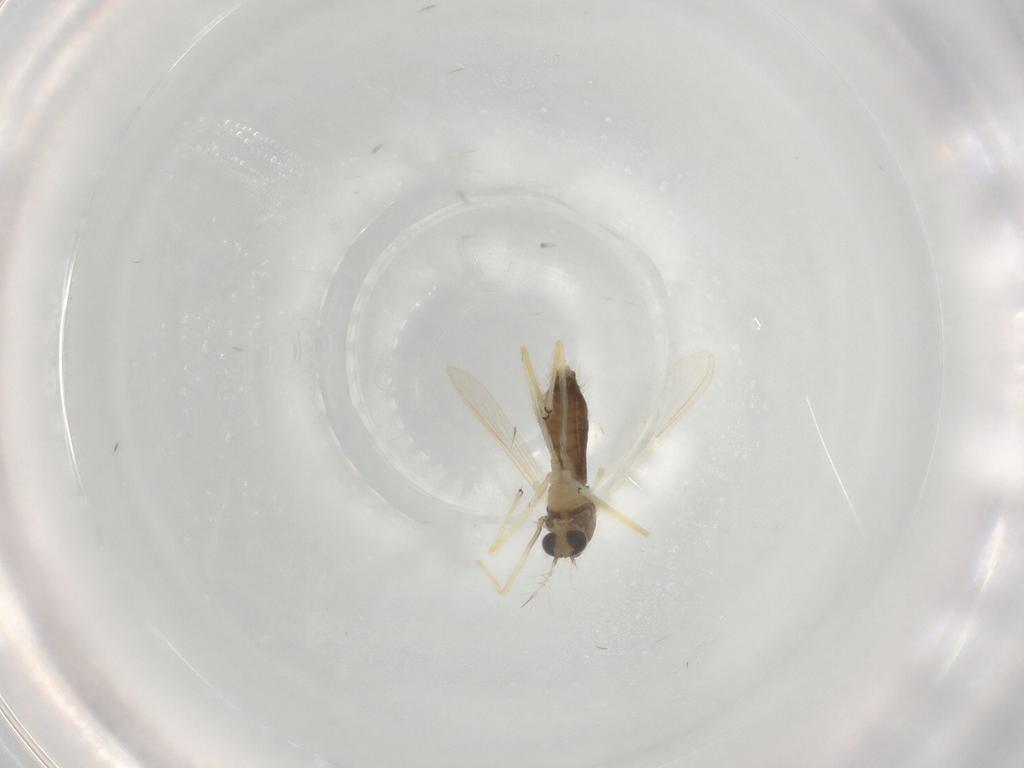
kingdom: Animalia
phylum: Arthropoda
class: Insecta
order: Diptera
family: Chironomidae
